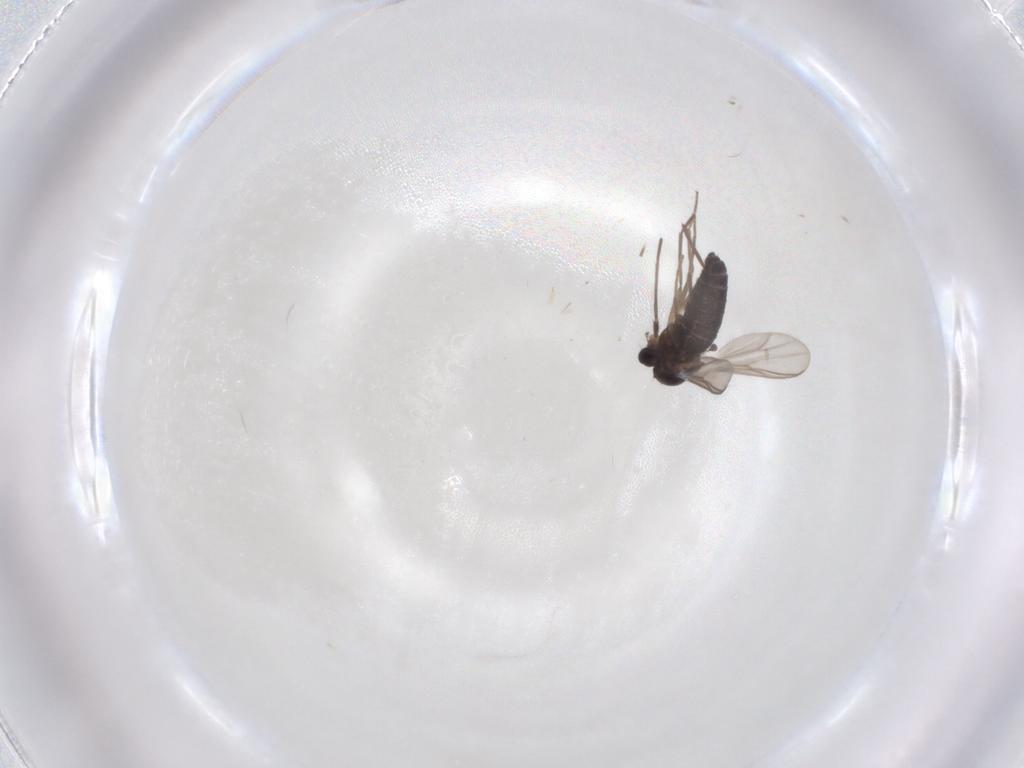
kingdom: Animalia
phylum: Arthropoda
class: Insecta
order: Diptera
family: Chironomidae
